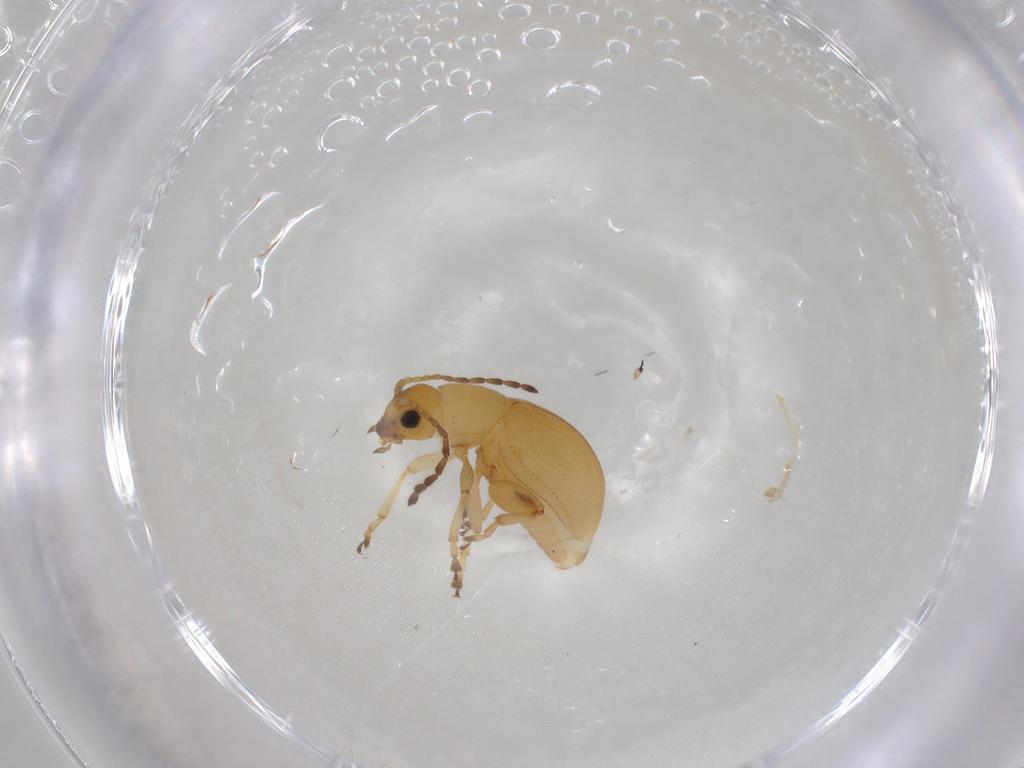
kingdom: Animalia
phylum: Arthropoda
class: Insecta
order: Coleoptera
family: Chrysomelidae
